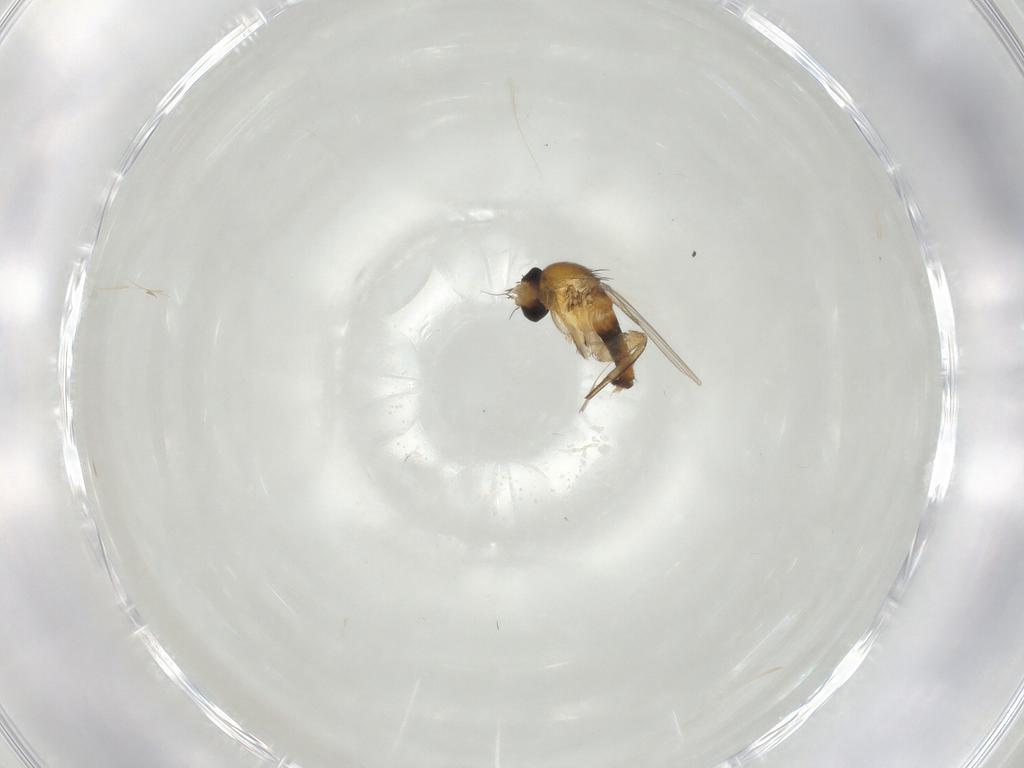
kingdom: Animalia
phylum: Arthropoda
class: Insecta
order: Diptera
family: Phoridae
